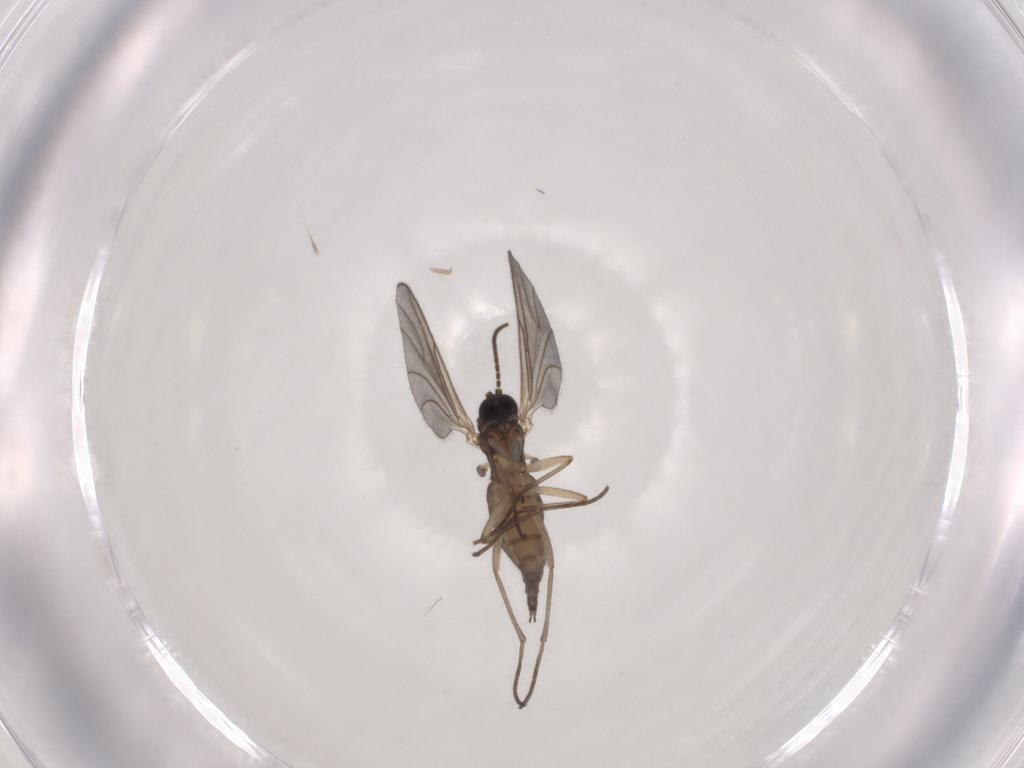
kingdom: Animalia
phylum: Arthropoda
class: Insecta
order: Diptera
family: Sciaridae
